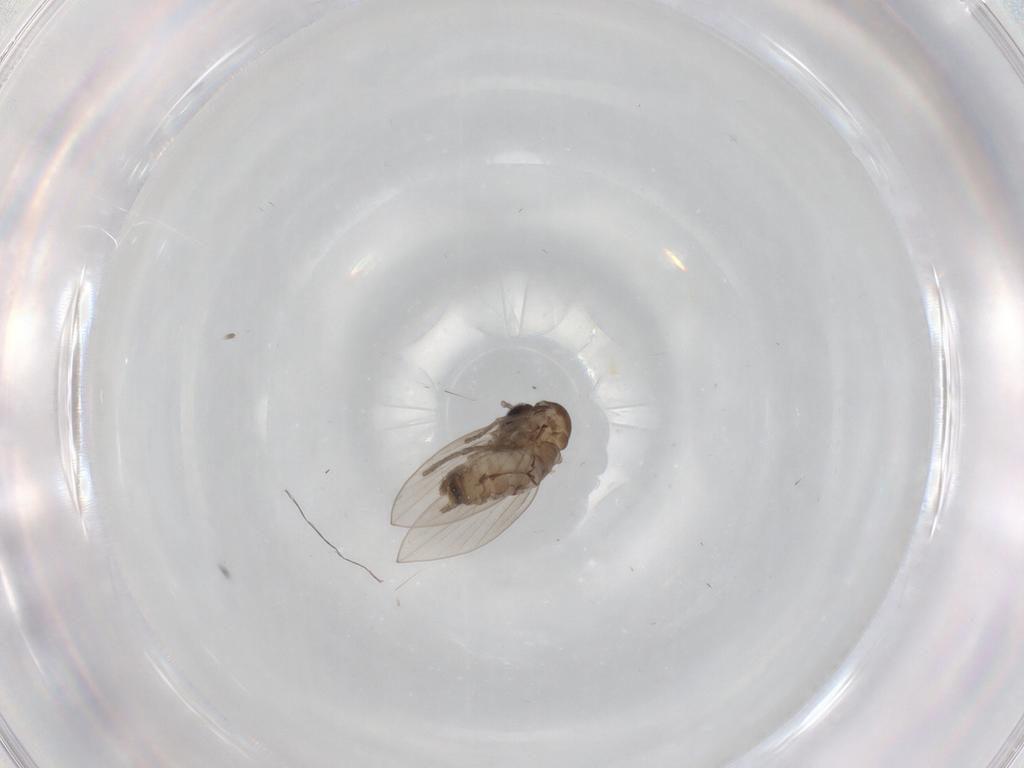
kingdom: Animalia
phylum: Arthropoda
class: Insecta
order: Diptera
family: Psychodidae
